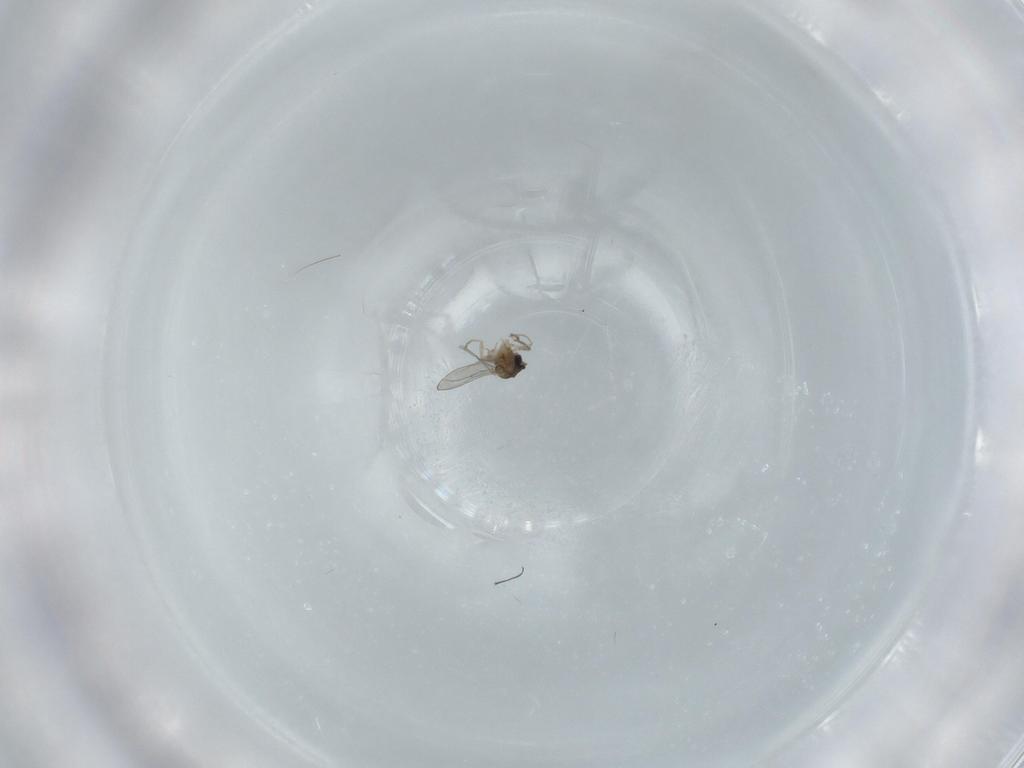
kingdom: Animalia
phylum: Arthropoda
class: Insecta
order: Diptera
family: Cecidomyiidae
